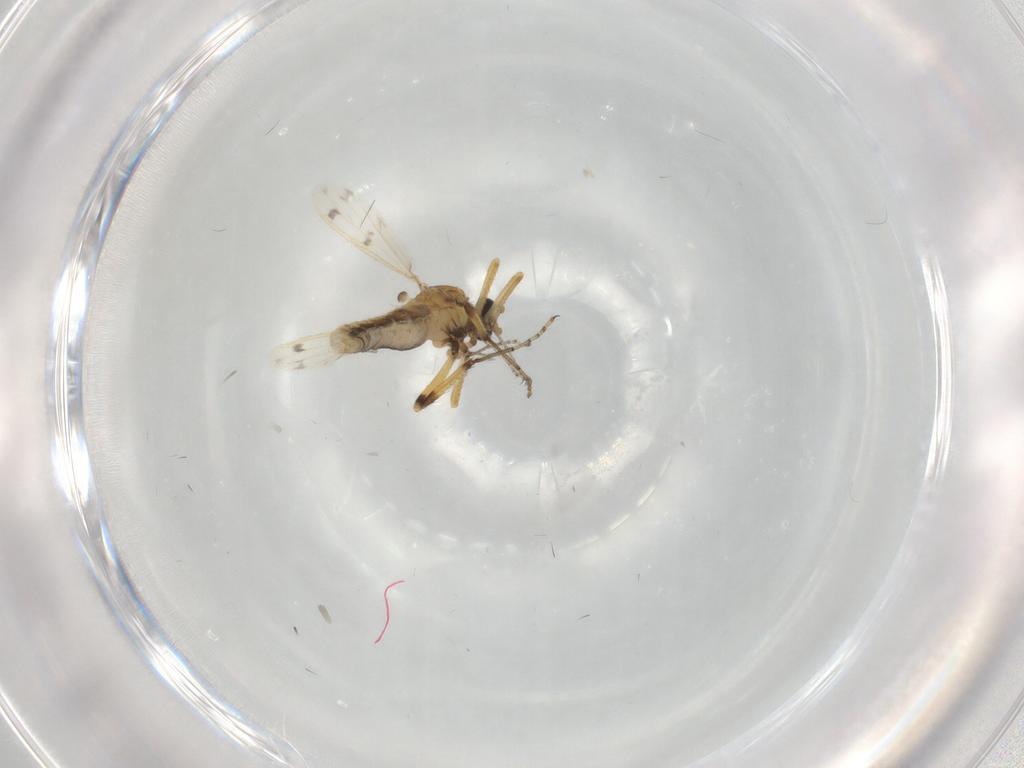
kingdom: Animalia
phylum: Arthropoda
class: Insecta
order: Diptera
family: Ceratopogonidae
